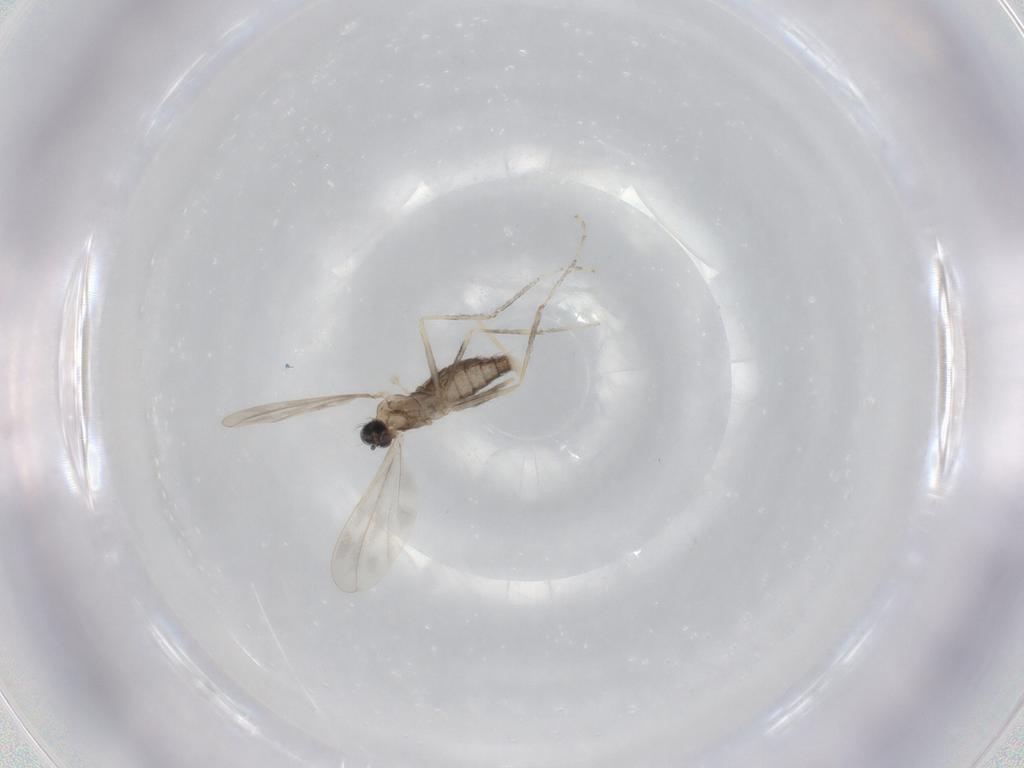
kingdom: Animalia
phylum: Arthropoda
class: Insecta
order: Diptera
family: Cecidomyiidae
